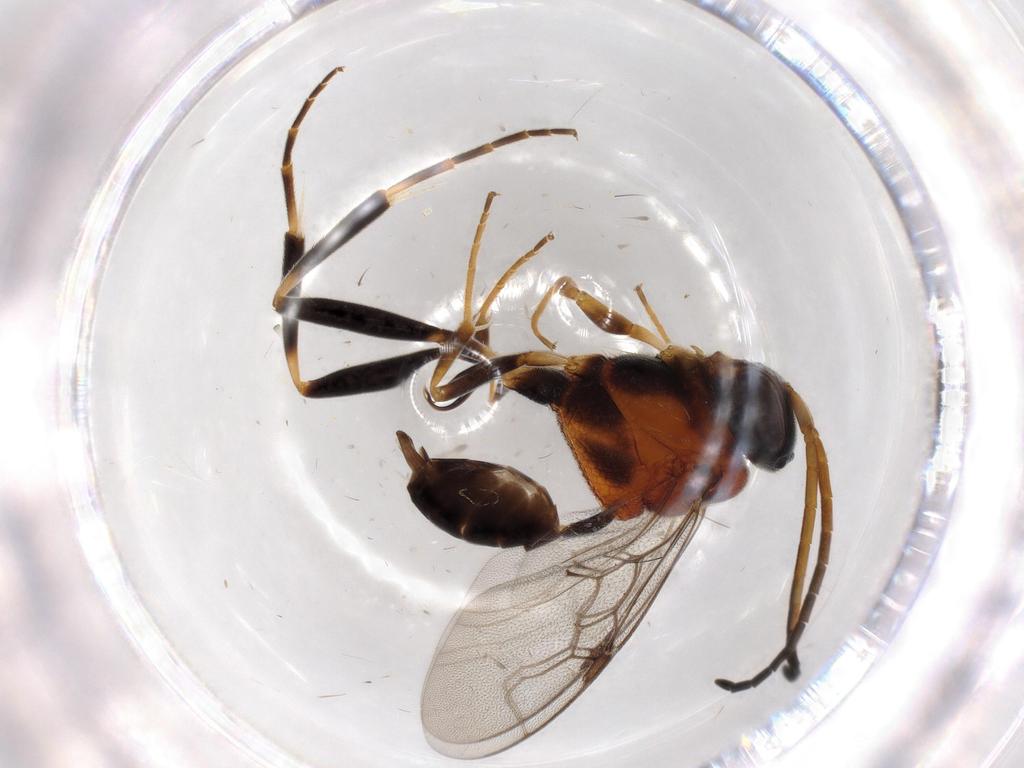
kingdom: Animalia
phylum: Arthropoda
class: Insecta
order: Hymenoptera
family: Evaniidae
